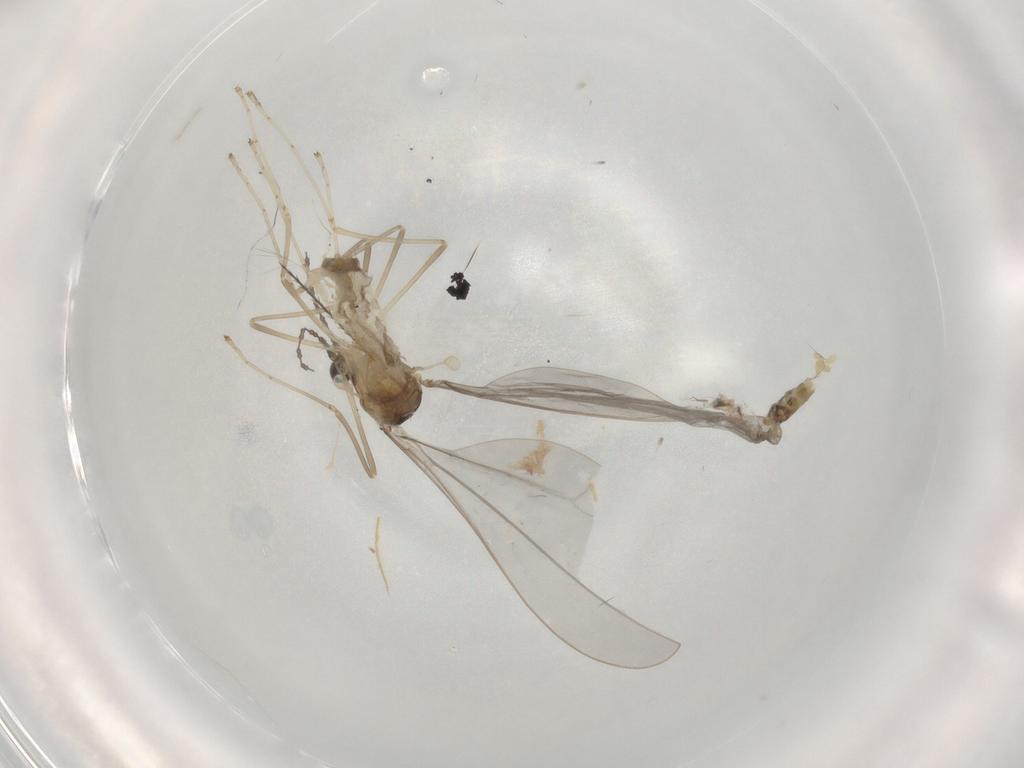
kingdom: Animalia
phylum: Arthropoda
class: Insecta
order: Diptera
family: Cecidomyiidae
